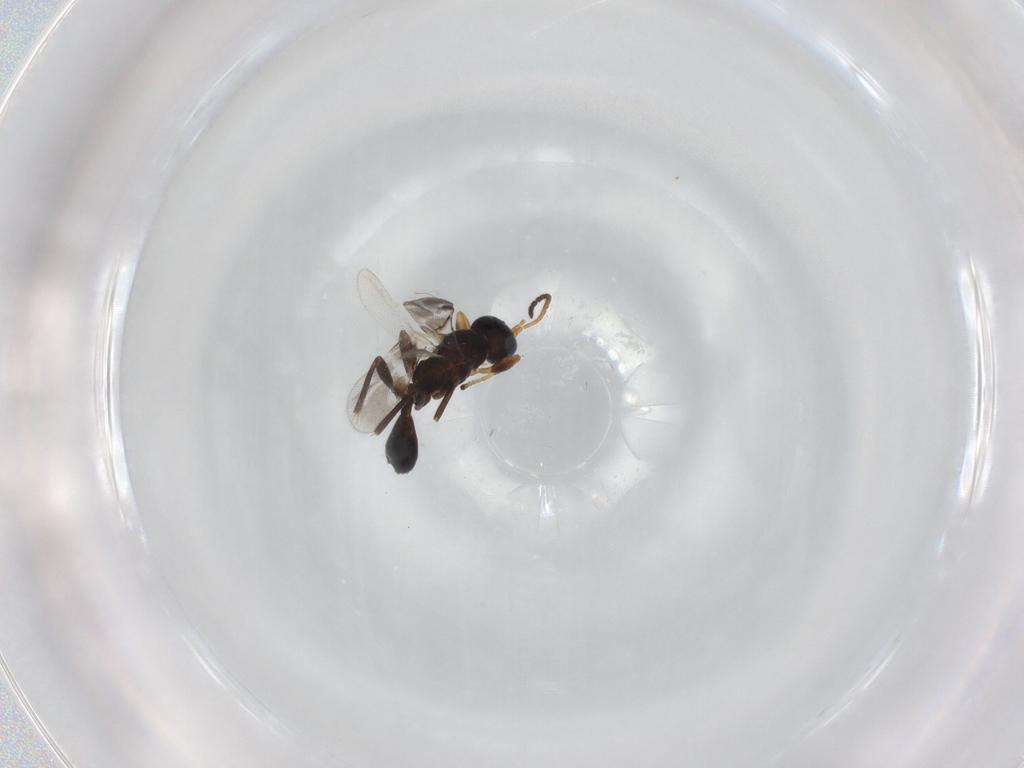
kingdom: Animalia
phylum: Arthropoda
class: Insecta
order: Hymenoptera
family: Braconidae
